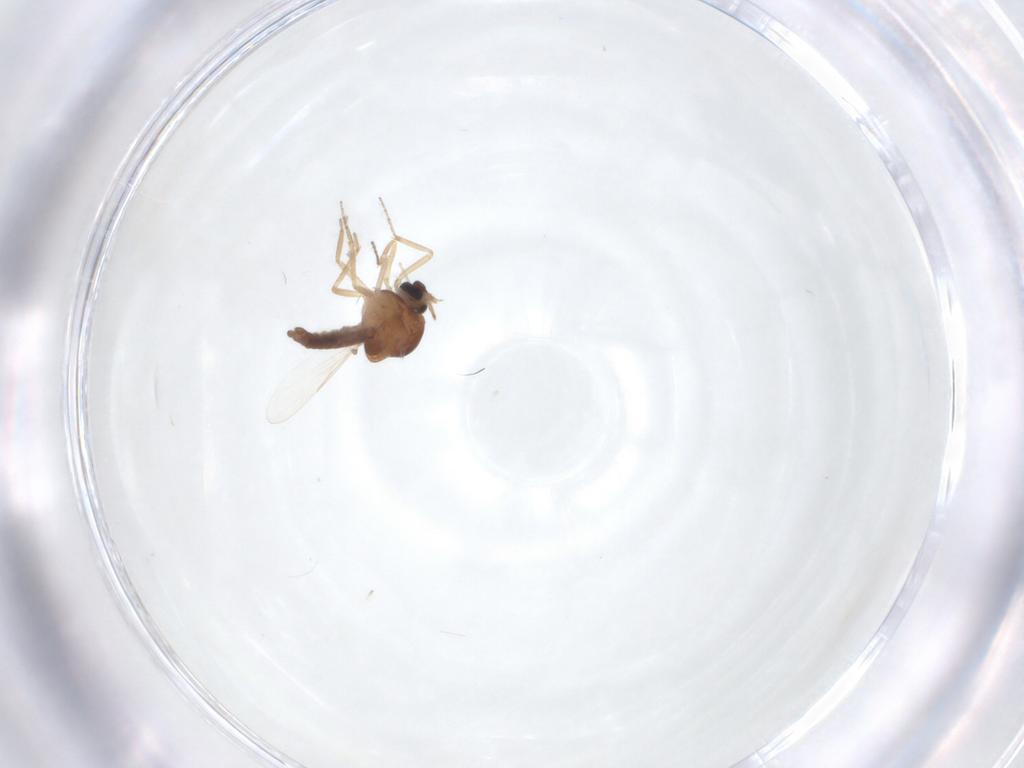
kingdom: Animalia
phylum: Arthropoda
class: Insecta
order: Diptera
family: Ceratopogonidae
